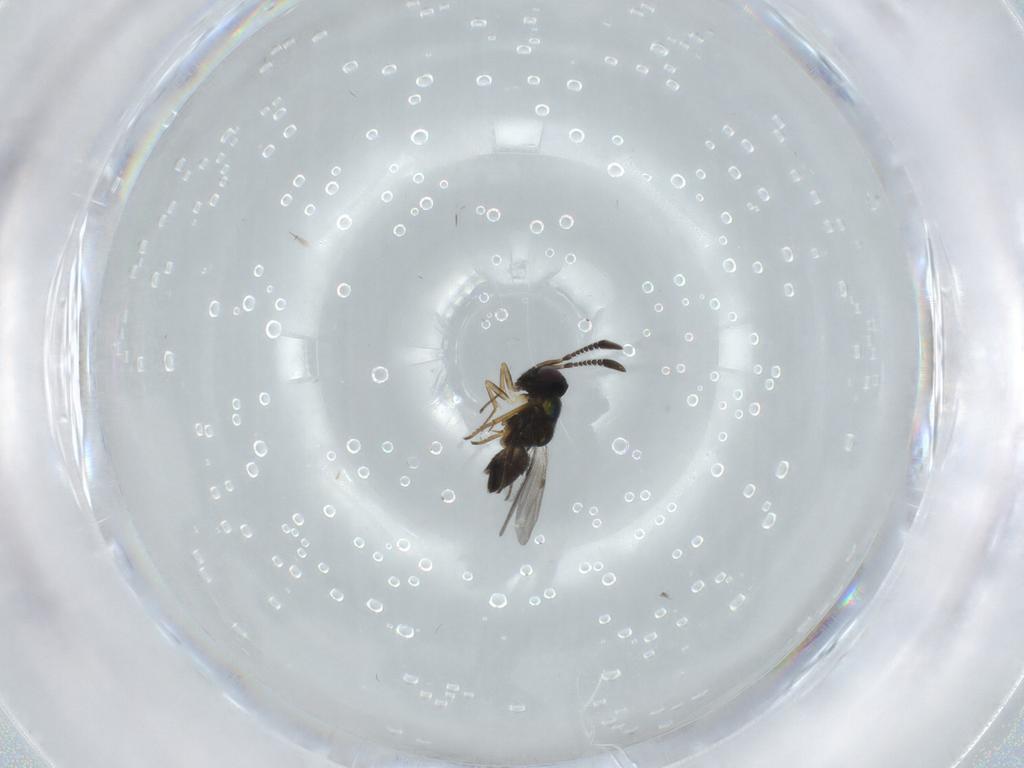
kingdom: Animalia
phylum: Arthropoda
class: Insecta
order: Hymenoptera
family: Encyrtidae
